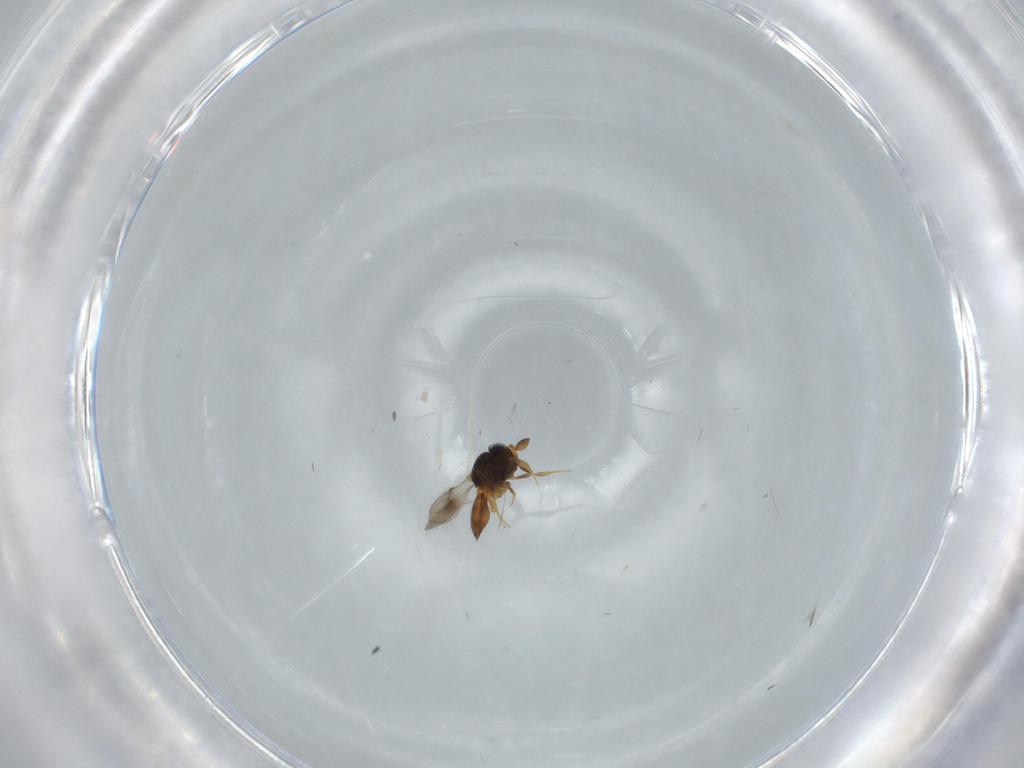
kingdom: Animalia
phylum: Arthropoda
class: Insecta
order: Hymenoptera
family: Scelionidae
